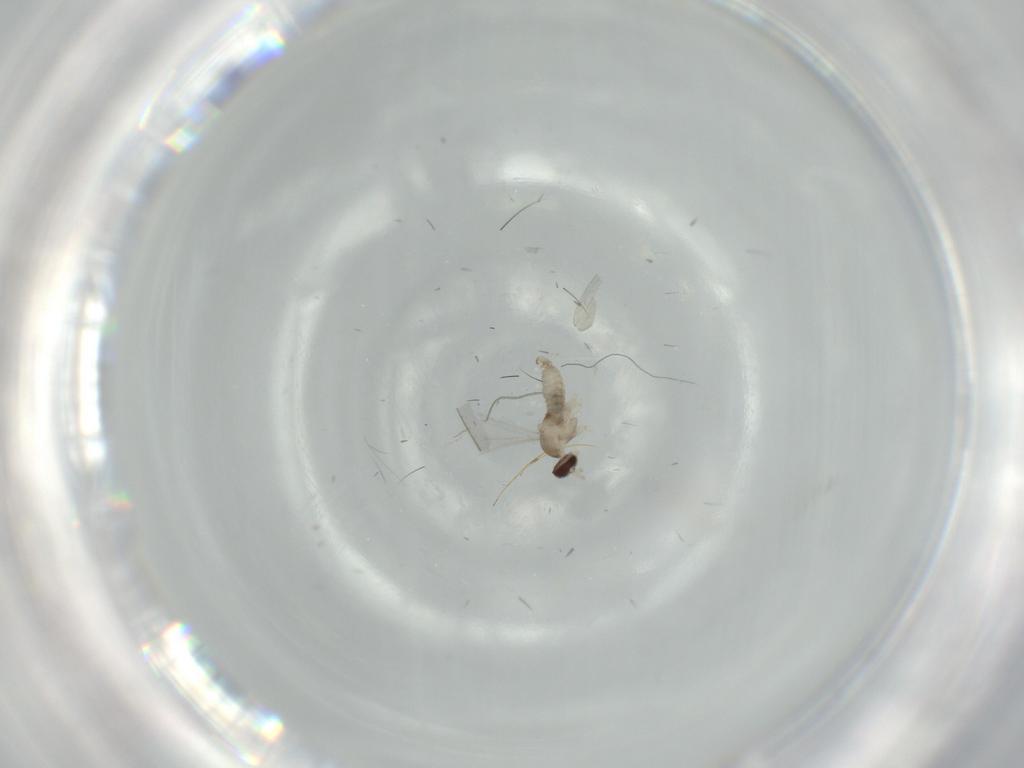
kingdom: Animalia
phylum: Arthropoda
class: Insecta
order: Diptera
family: Cecidomyiidae
